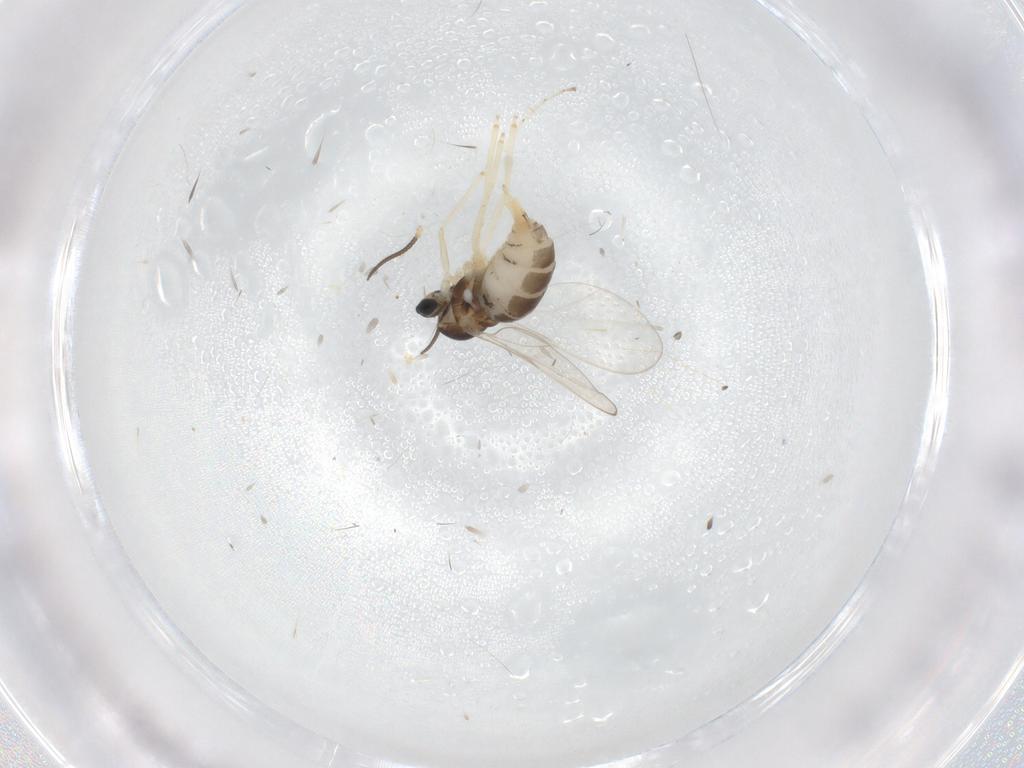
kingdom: Animalia
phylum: Arthropoda
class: Insecta
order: Diptera
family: Cecidomyiidae
